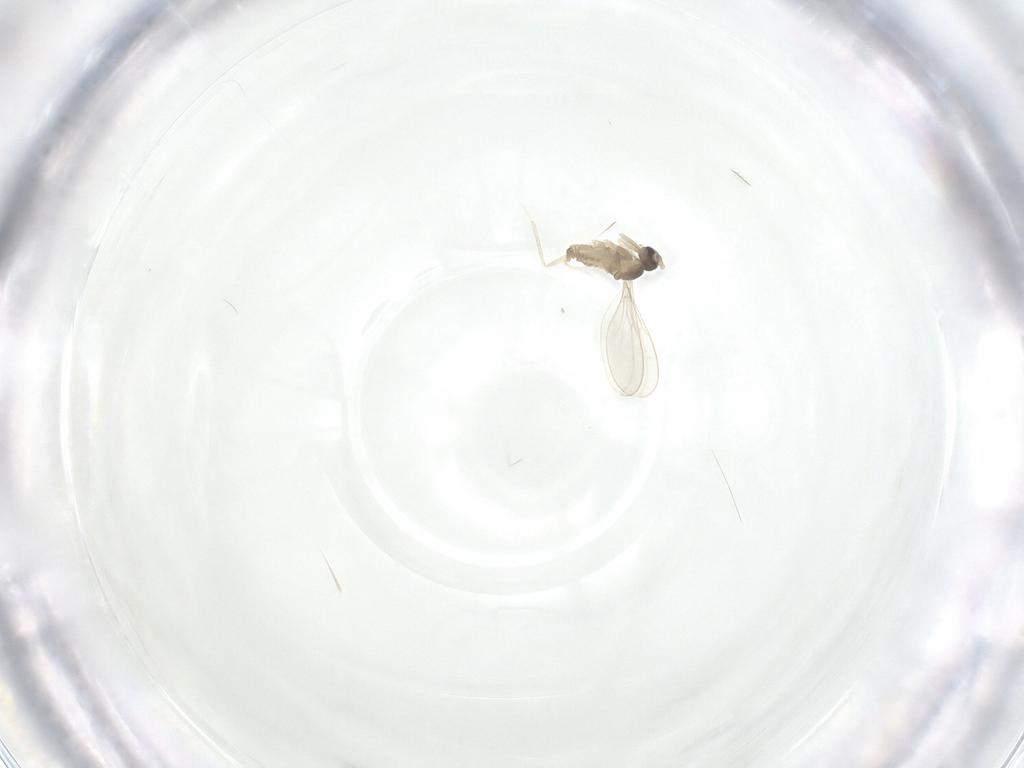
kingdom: Animalia
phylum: Arthropoda
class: Insecta
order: Diptera
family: Cecidomyiidae
